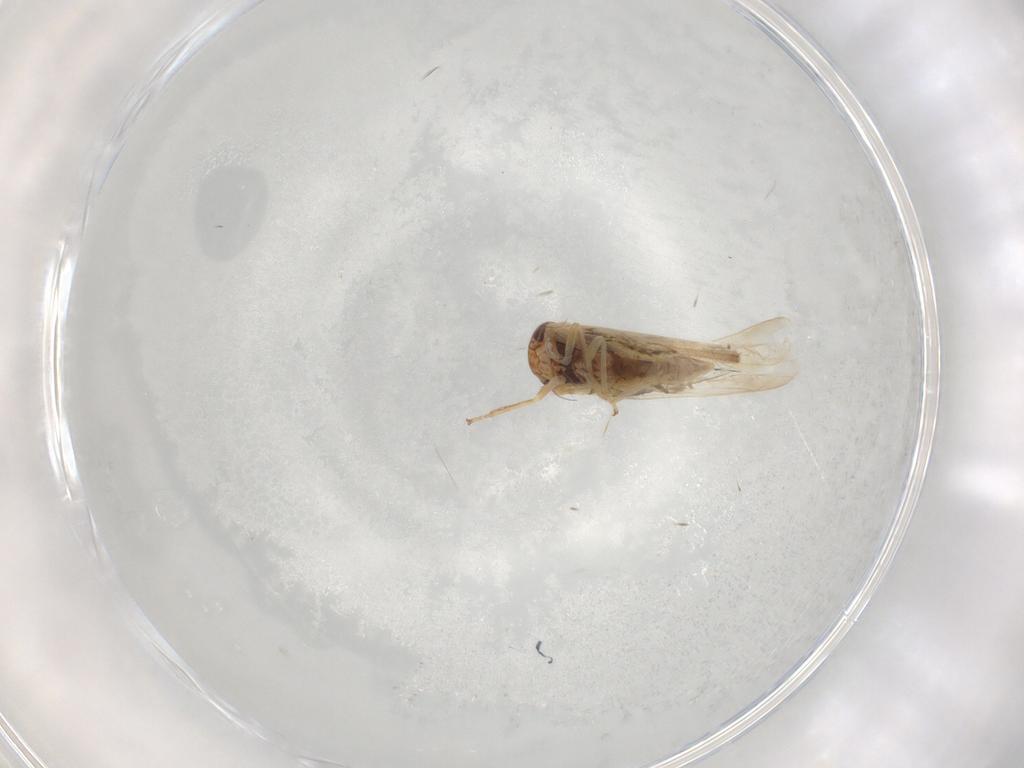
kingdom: Animalia
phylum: Arthropoda
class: Insecta
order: Hemiptera
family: Cicadellidae
